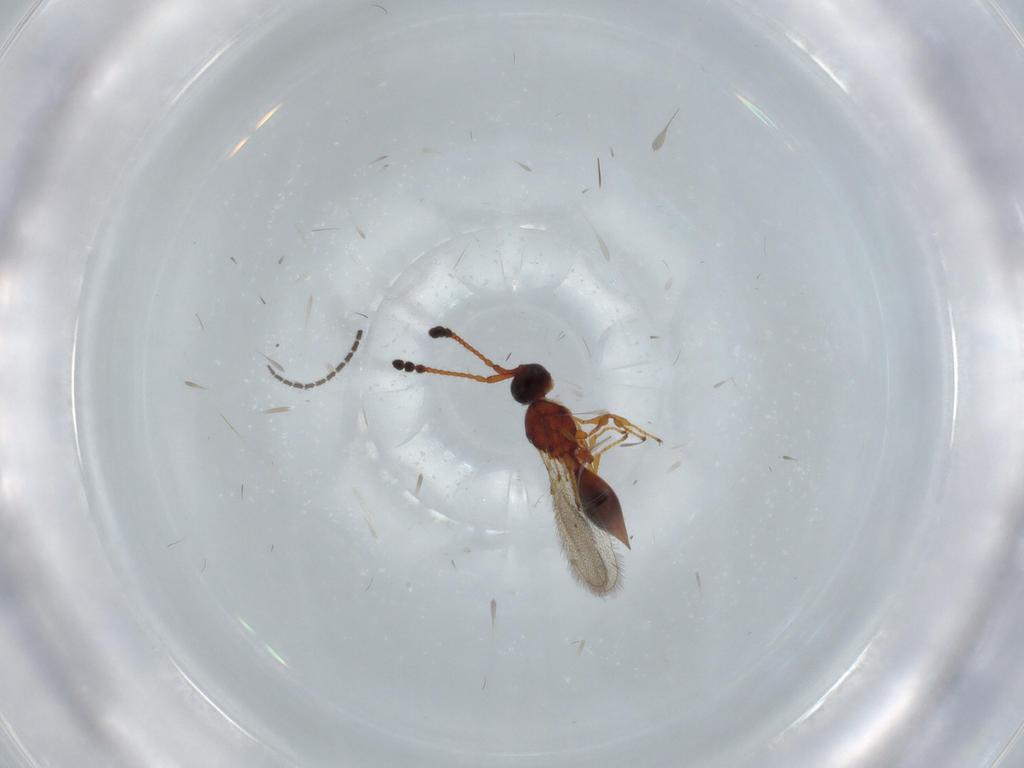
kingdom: Animalia
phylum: Arthropoda
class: Insecta
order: Hymenoptera
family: Diapriidae
